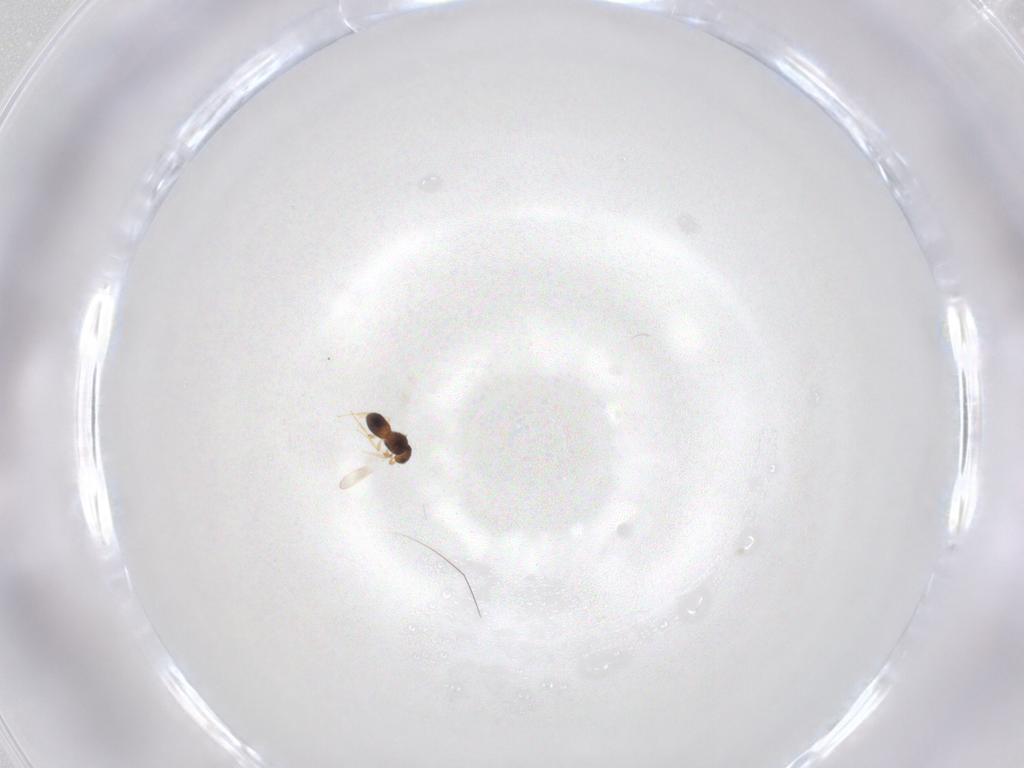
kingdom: Animalia
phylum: Arthropoda
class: Insecta
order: Hymenoptera
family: Platygastridae
